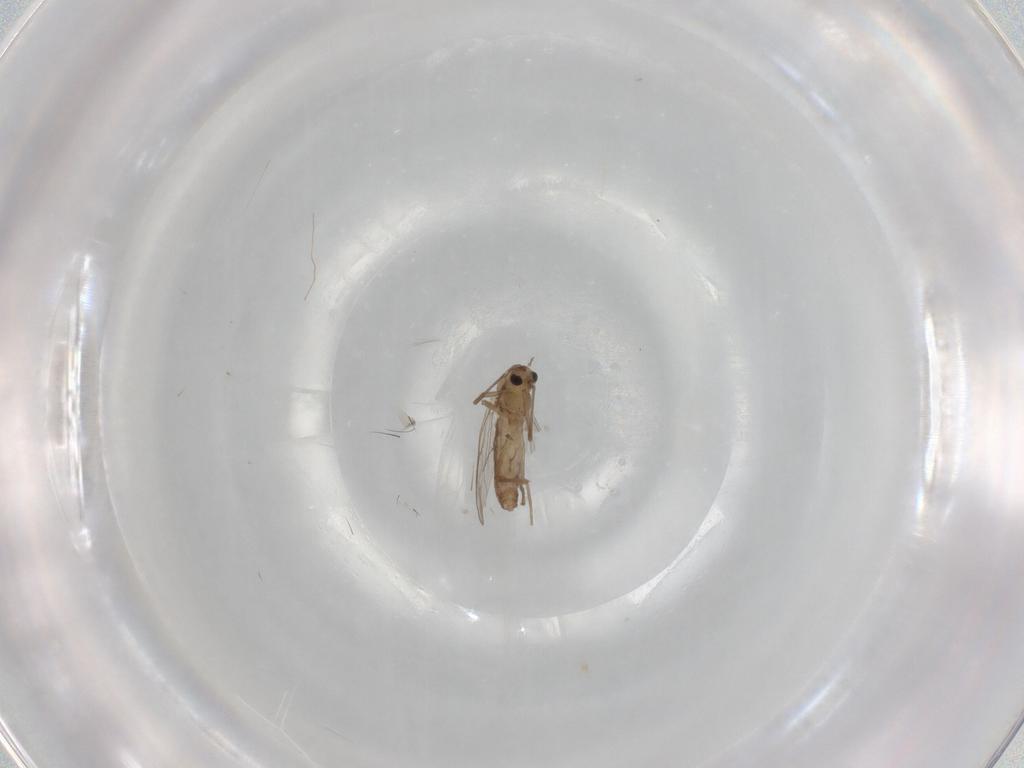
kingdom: Animalia
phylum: Arthropoda
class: Insecta
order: Diptera
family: Chironomidae
